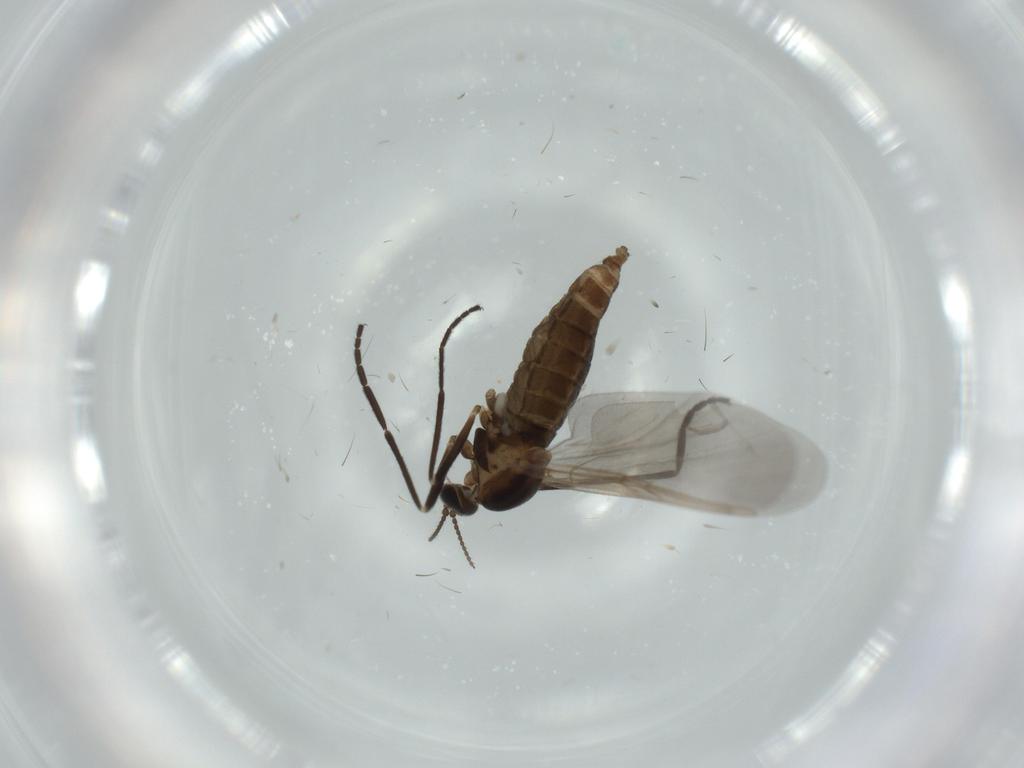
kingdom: Animalia
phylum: Arthropoda
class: Insecta
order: Diptera
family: Cecidomyiidae
